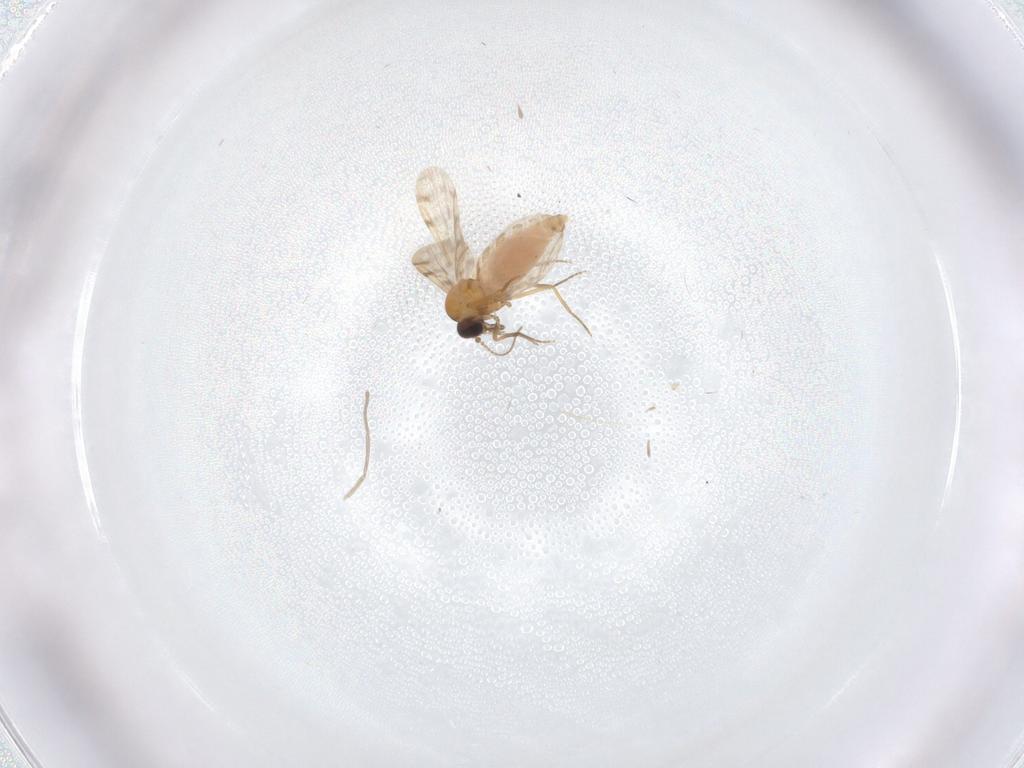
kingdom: Animalia
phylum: Arthropoda
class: Insecta
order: Diptera
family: Ceratopogonidae
